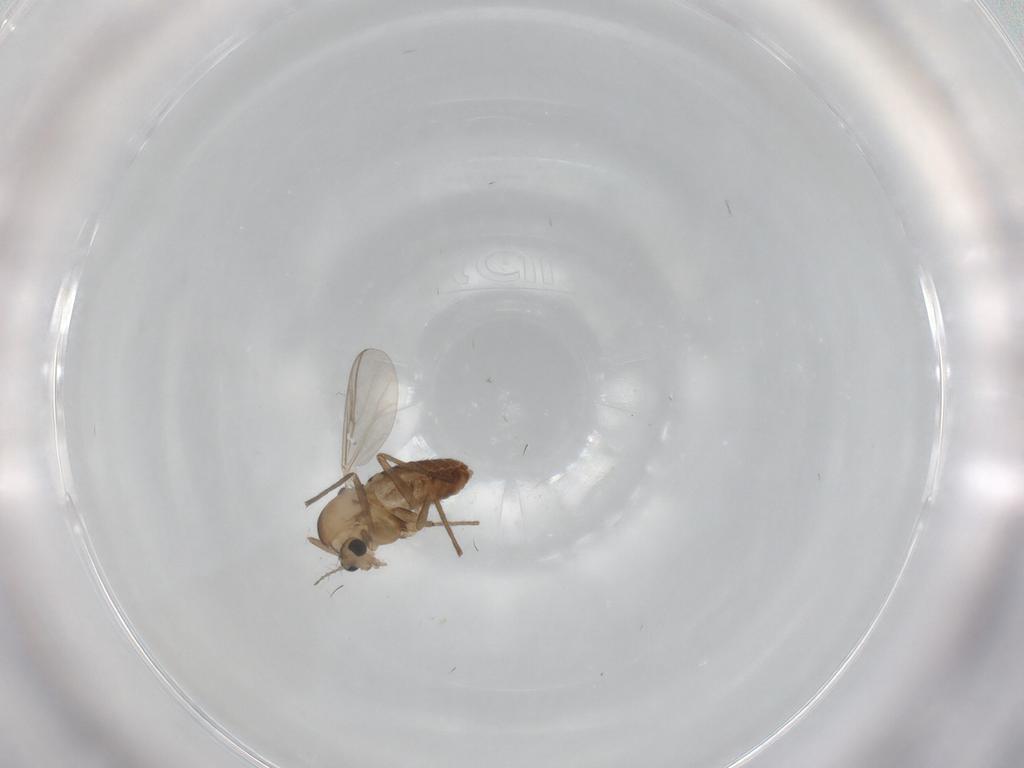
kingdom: Animalia
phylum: Arthropoda
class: Insecta
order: Diptera
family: Chironomidae
